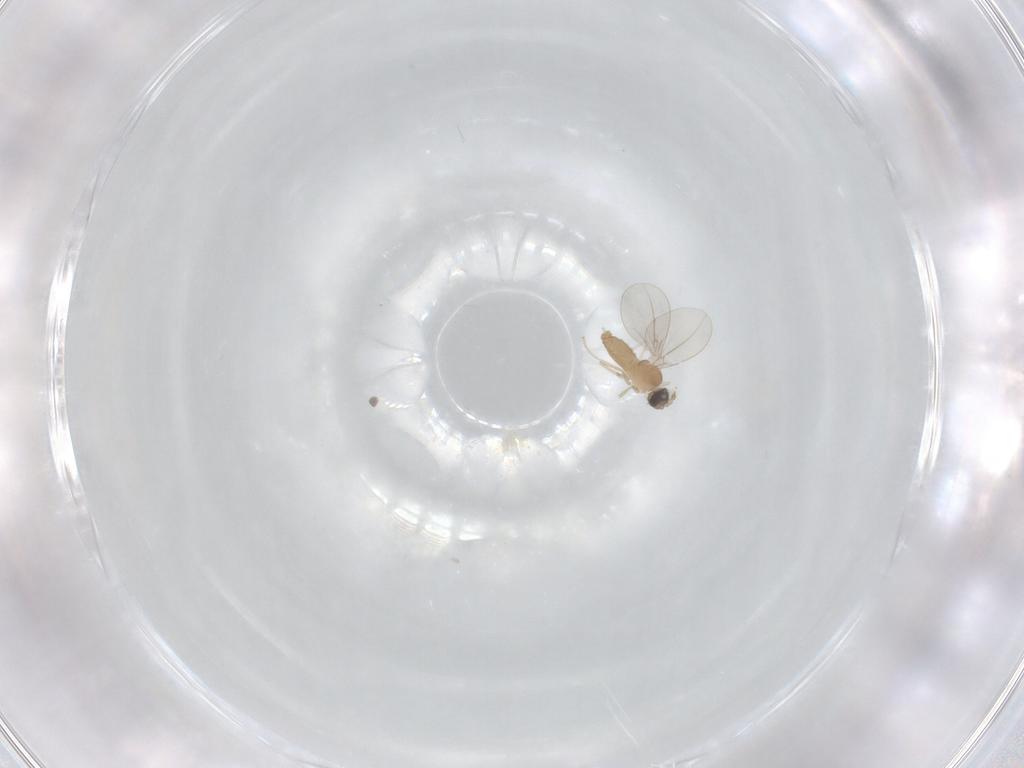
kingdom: Animalia
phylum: Arthropoda
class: Insecta
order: Diptera
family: Cecidomyiidae
